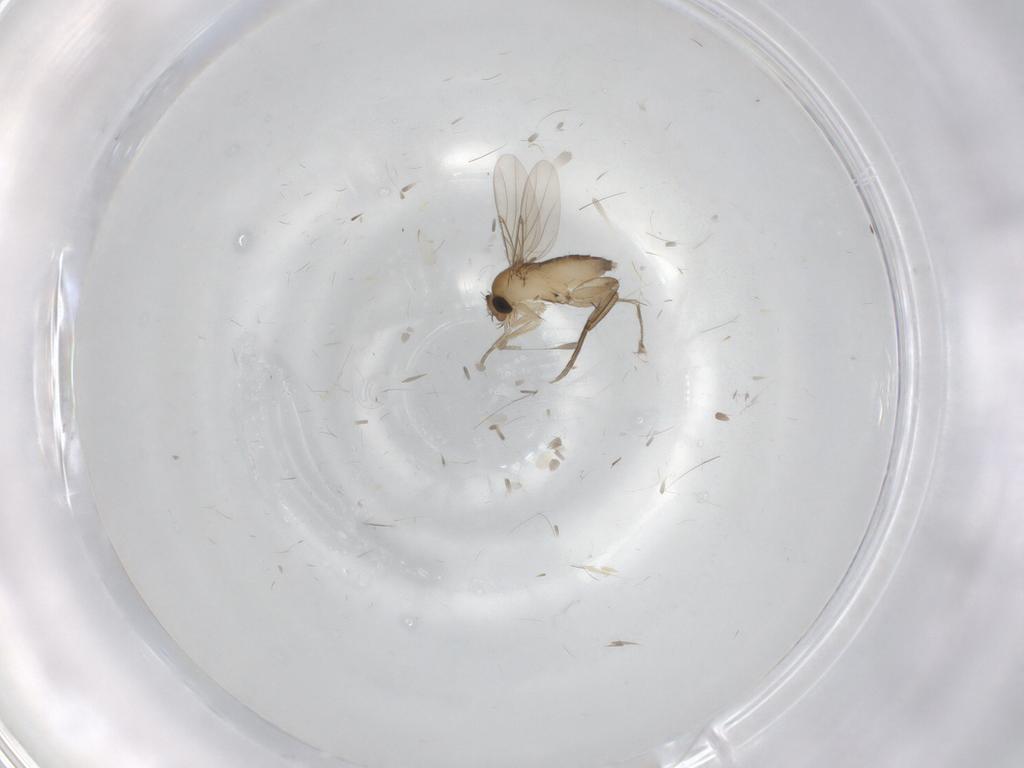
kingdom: Animalia
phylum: Arthropoda
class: Insecta
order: Diptera
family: Phoridae
